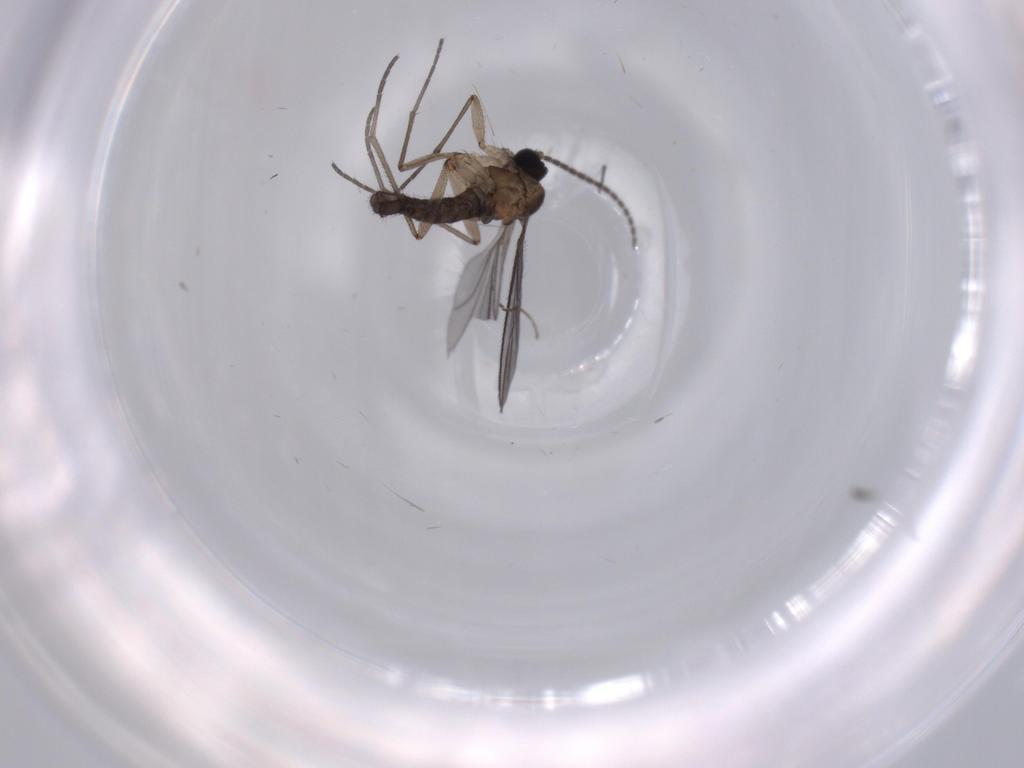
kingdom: Animalia
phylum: Arthropoda
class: Insecta
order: Diptera
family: Sciaridae
